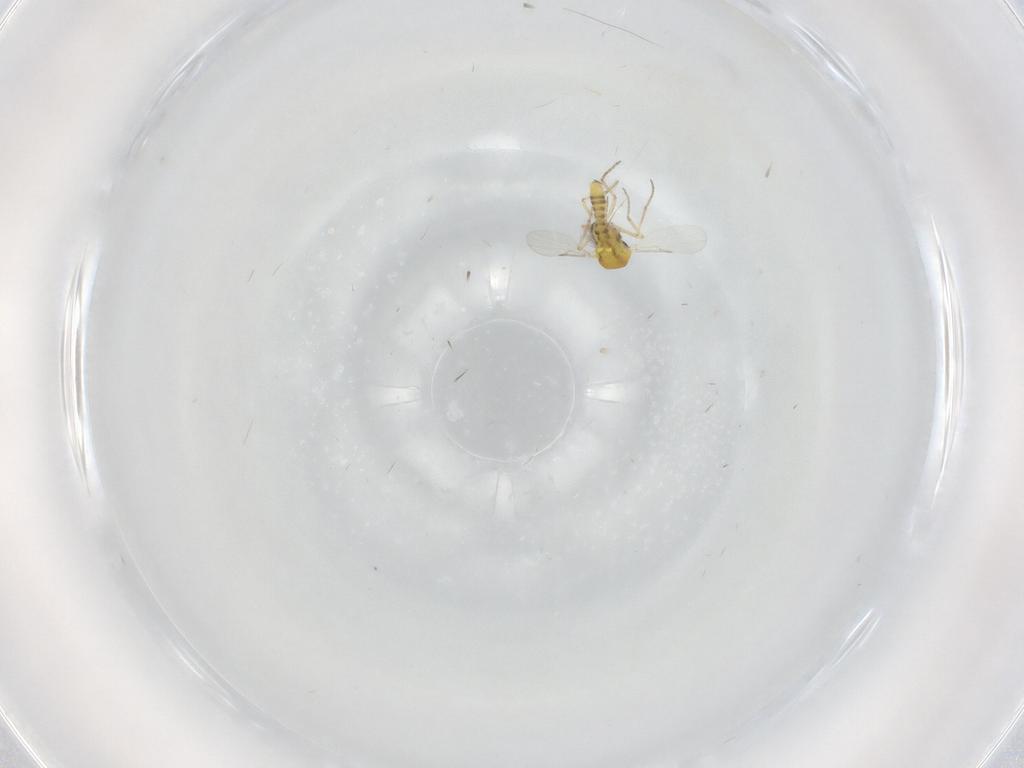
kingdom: Animalia
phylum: Arthropoda
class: Insecta
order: Diptera
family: Ceratopogonidae
